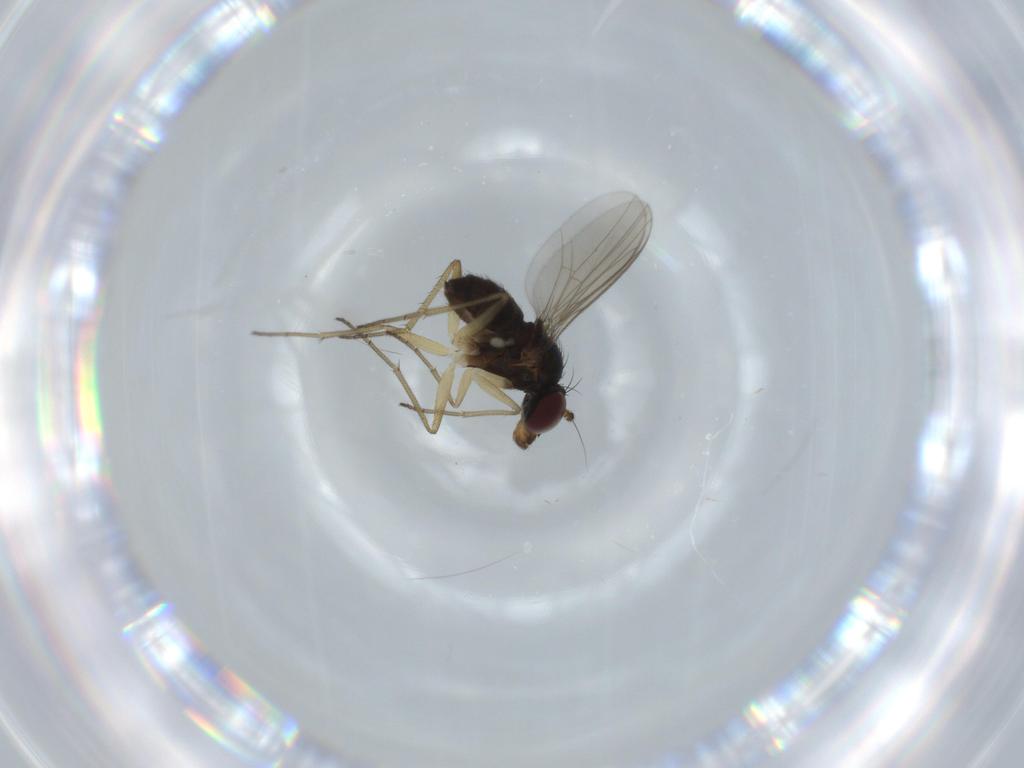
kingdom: Animalia
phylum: Arthropoda
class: Insecta
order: Diptera
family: Dolichopodidae
